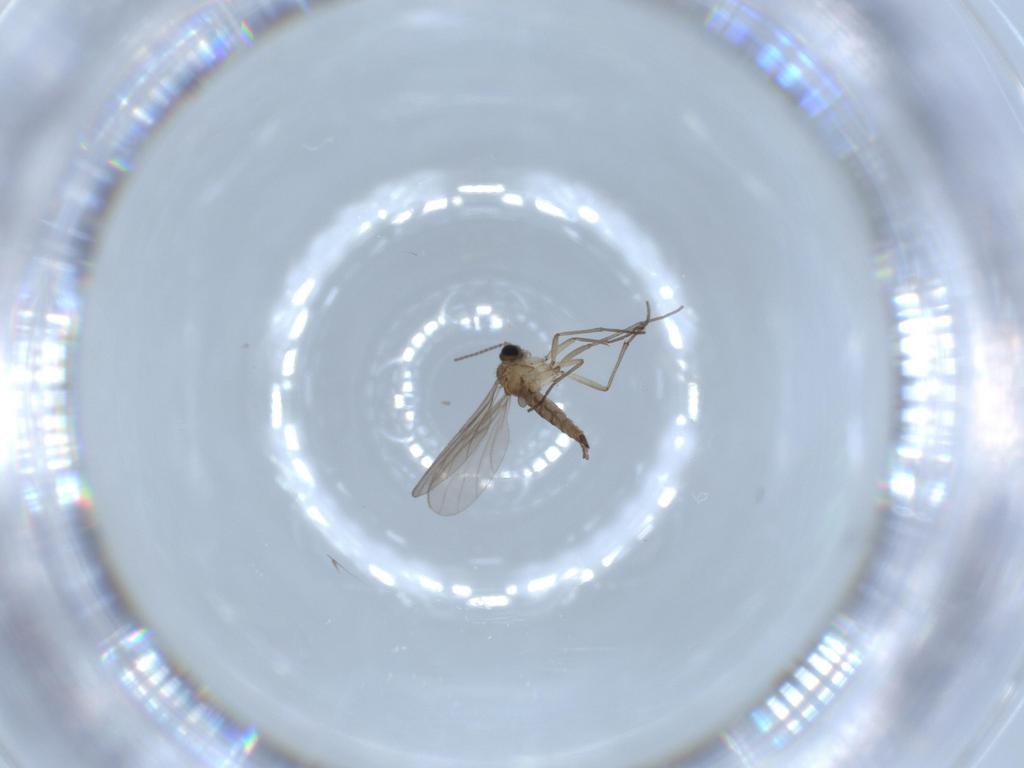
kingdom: Animalia
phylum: Arthropoda
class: Insecta
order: Diptera
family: Sciaridae
